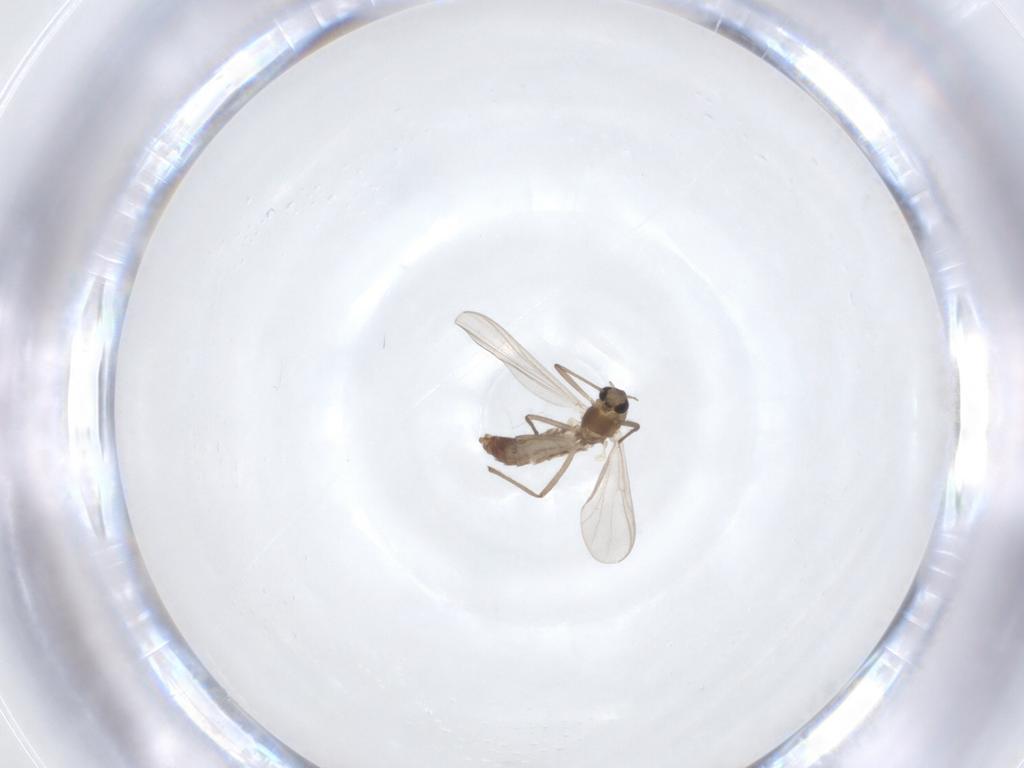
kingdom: Animalia
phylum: Arthropoda
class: Insecta
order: Diptera
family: Chironomidae
